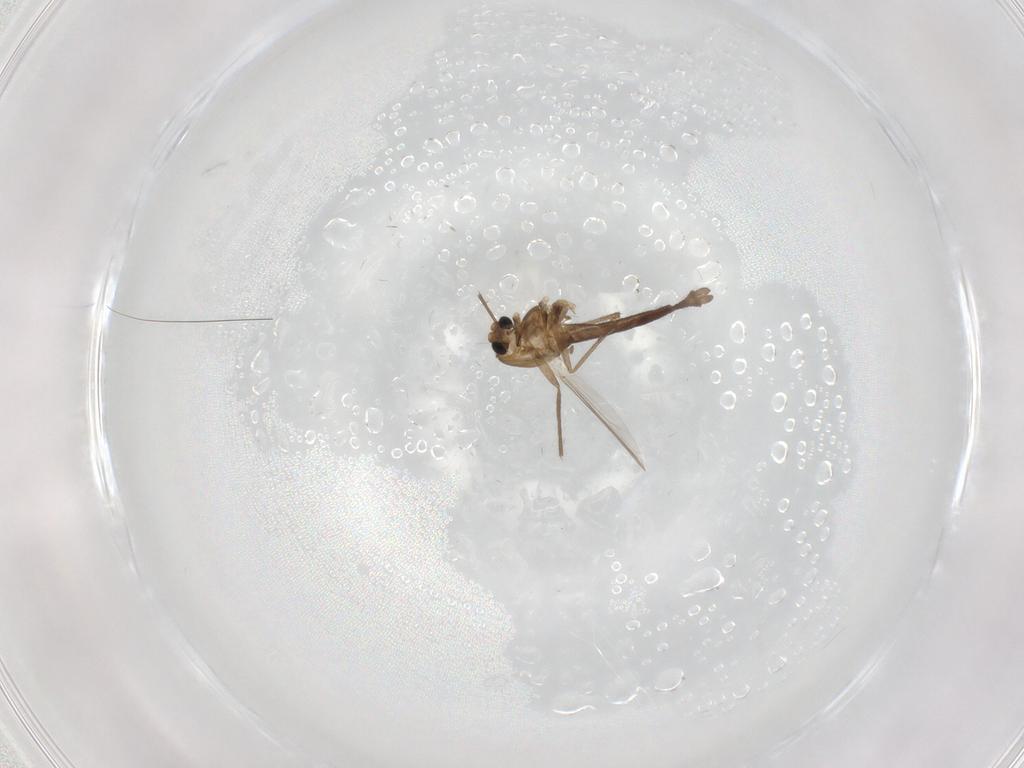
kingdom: Animalia
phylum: Arthropoda
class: Insecta
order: Diptera
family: Chironomidae
